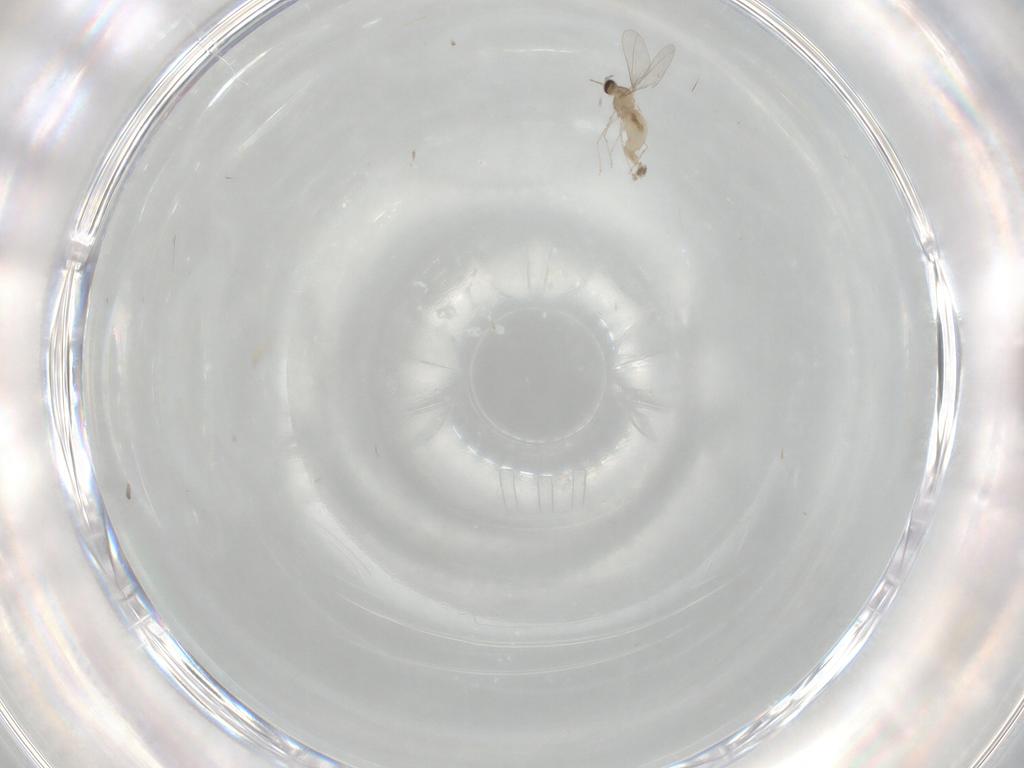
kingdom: Animalia
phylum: Arthropoda
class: Insecta
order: Diptera
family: Cecidomyiidae
